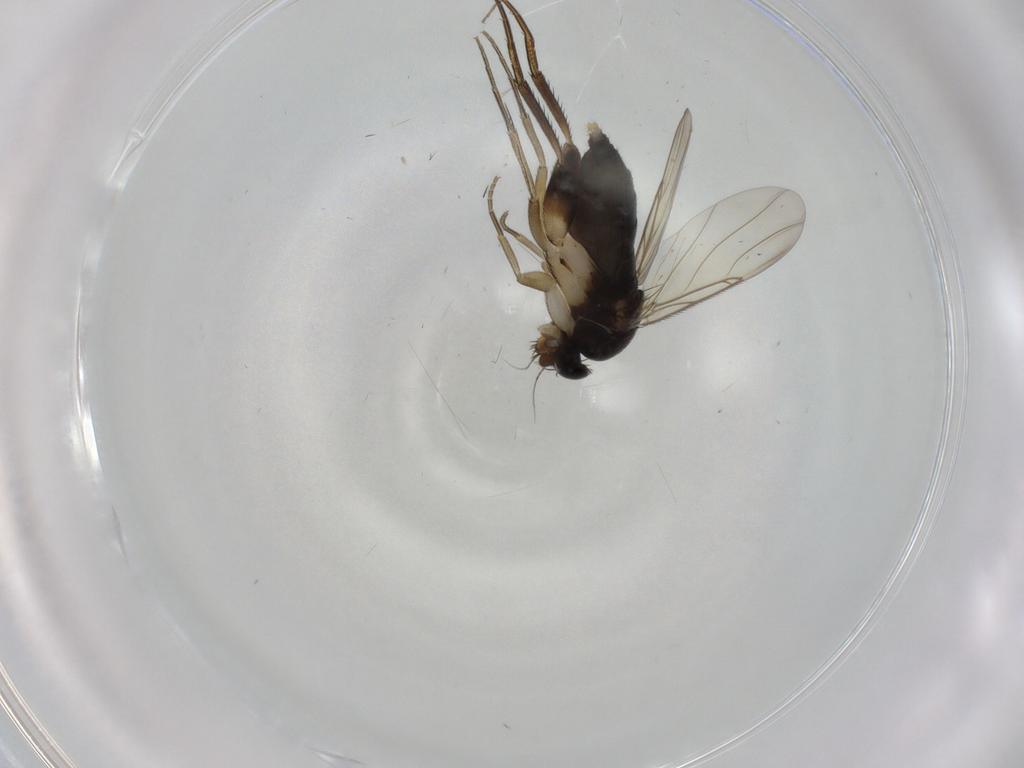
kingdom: Animalia
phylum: Arthropoda
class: Insecta
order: Diptera
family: Phoridae
